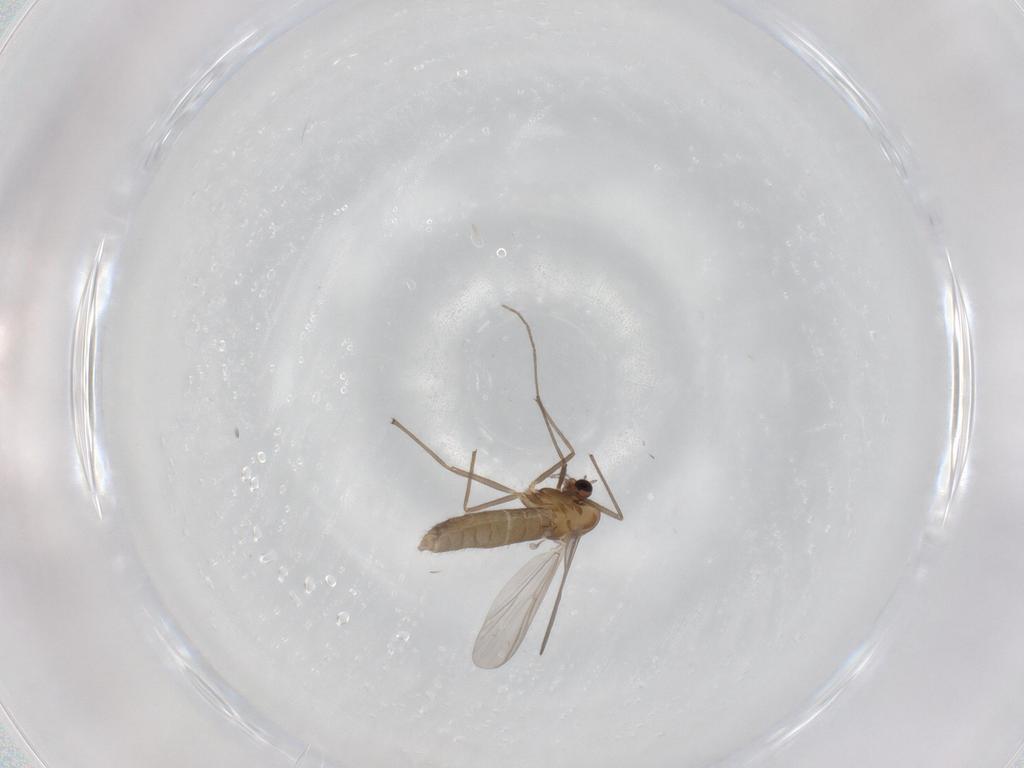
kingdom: Animalia
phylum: Arthropoda
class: Insecta
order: Diptera
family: Chironomidae
